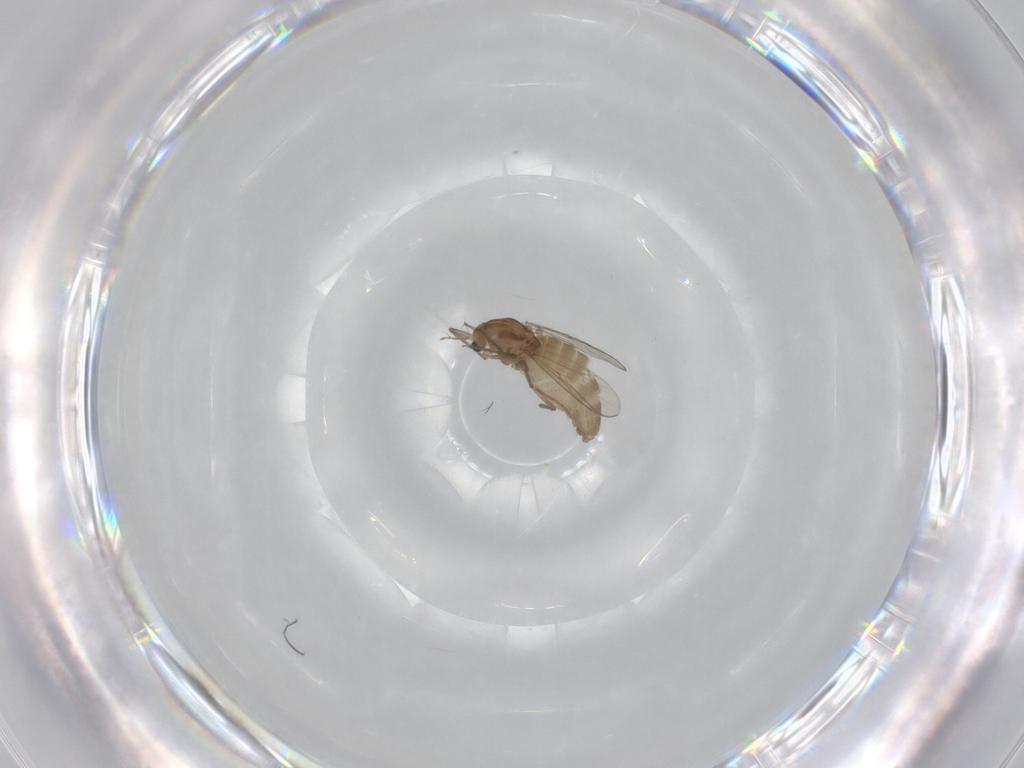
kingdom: Animalia
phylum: Arthropoda
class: Insecta
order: Diptera
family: Chironomidae
